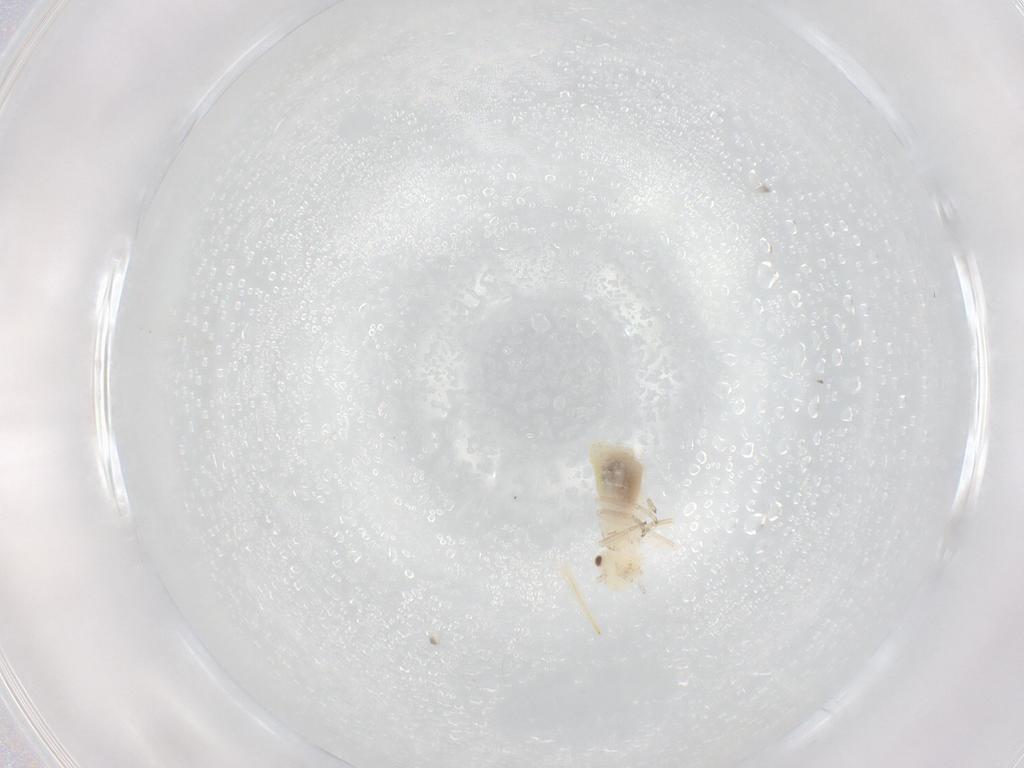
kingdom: Animalia
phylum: Arthropoda
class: Insecta
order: Psocodea
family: Caeciliusidae
